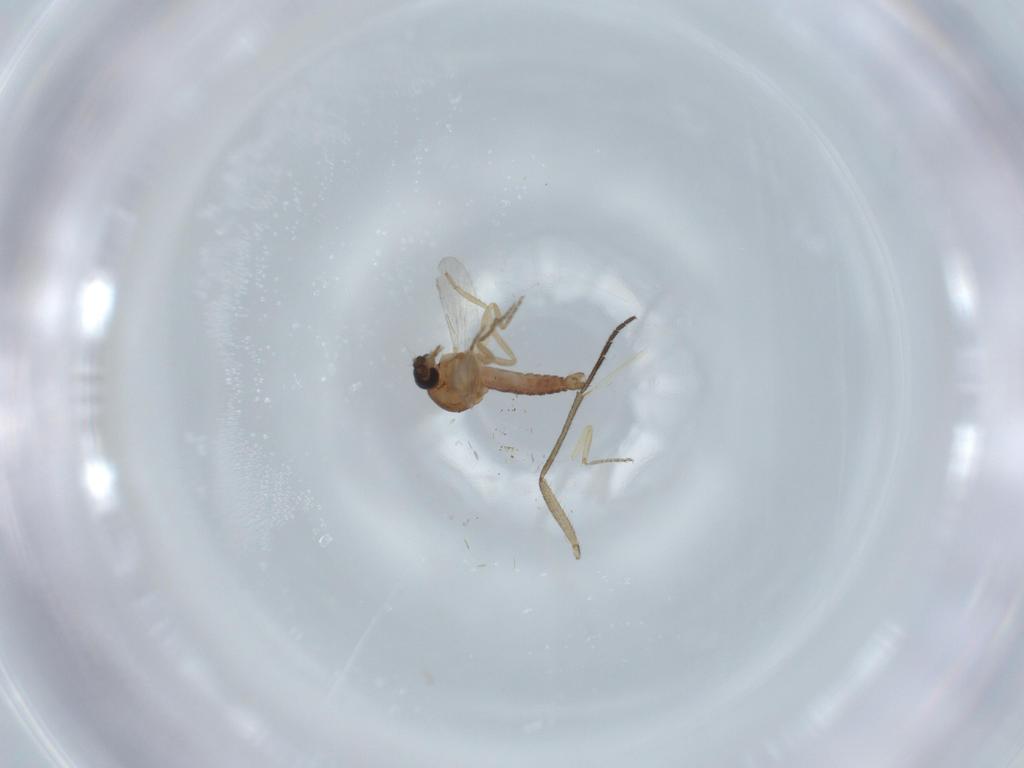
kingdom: Animalia
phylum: Arthropoda
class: Insecta
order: Diptera
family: Ceratopogonidae
